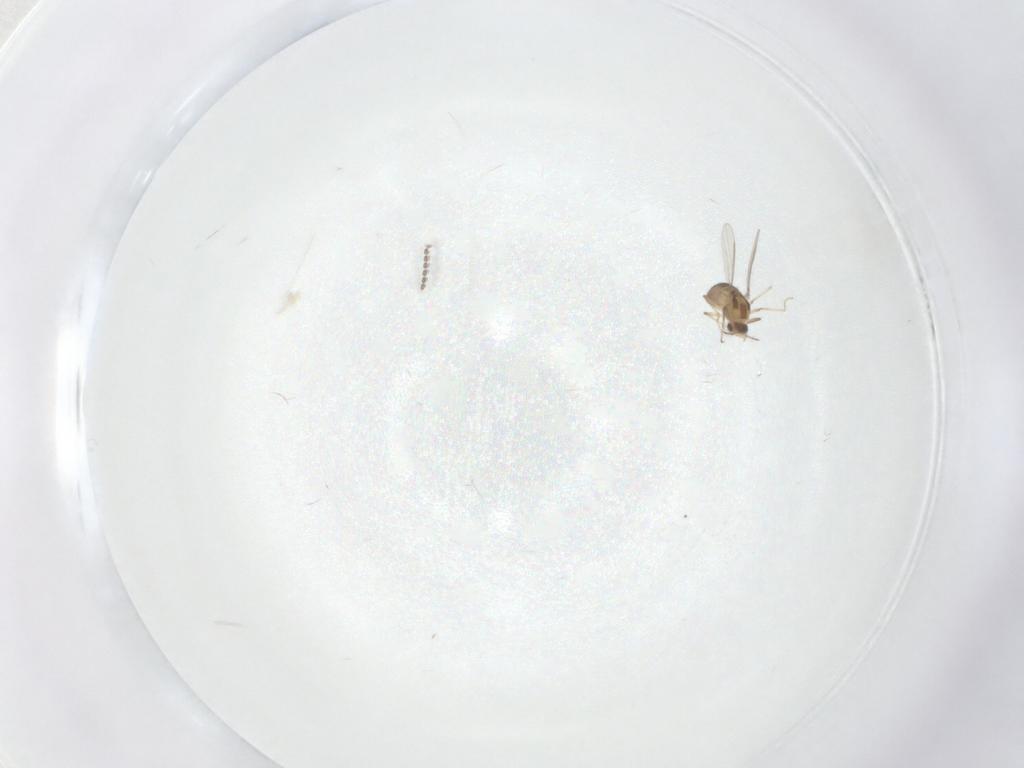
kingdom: Animalia
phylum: Arthropoda
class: Insecta
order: Diptera
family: Chironomidae
